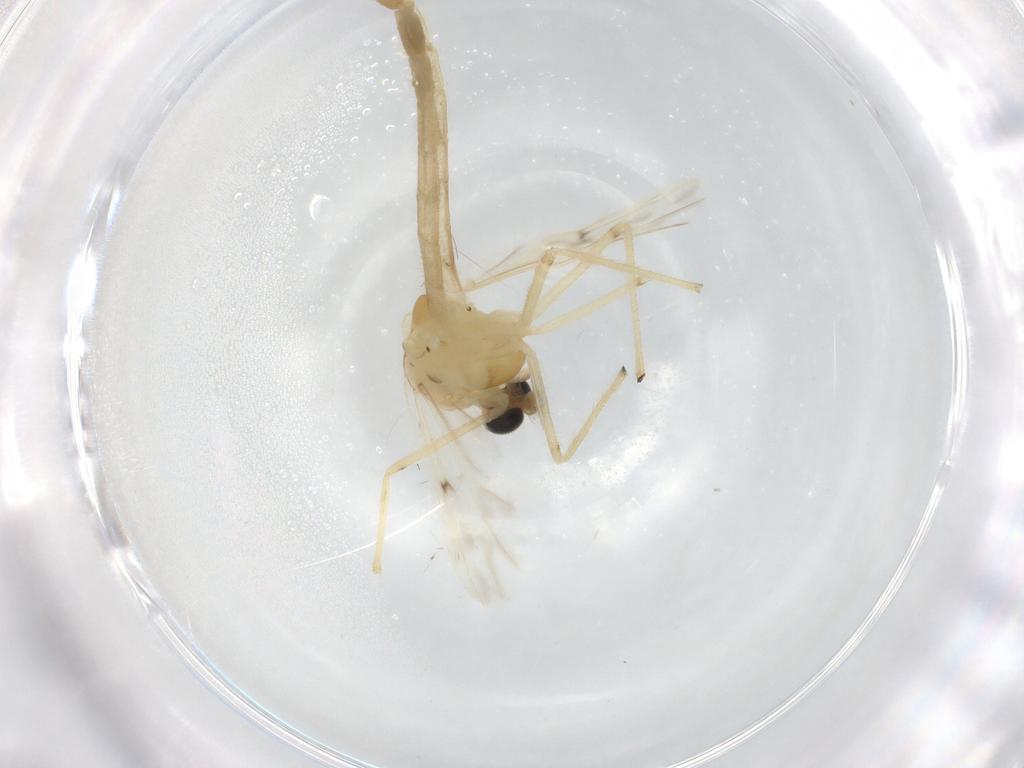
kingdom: Animalia
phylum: Arthropoda
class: Insecta
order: Diptera
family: Chironomidae
